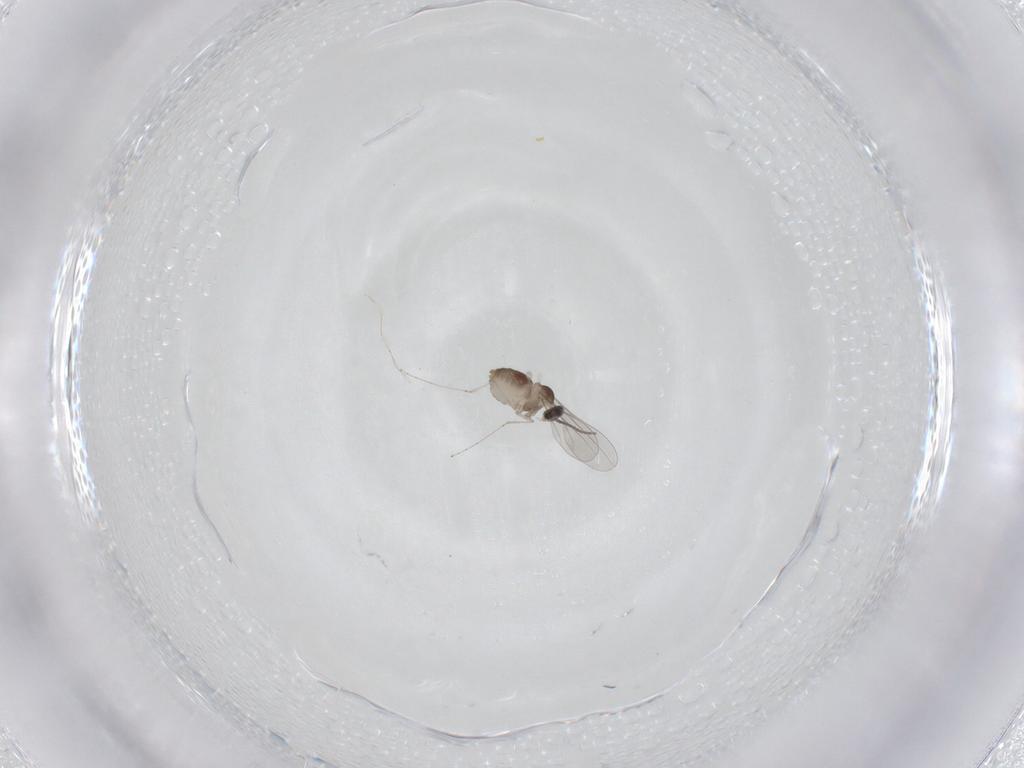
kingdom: Animalia
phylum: Arthropoda
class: Insecta
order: Diptera
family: Cecidomyiidae
